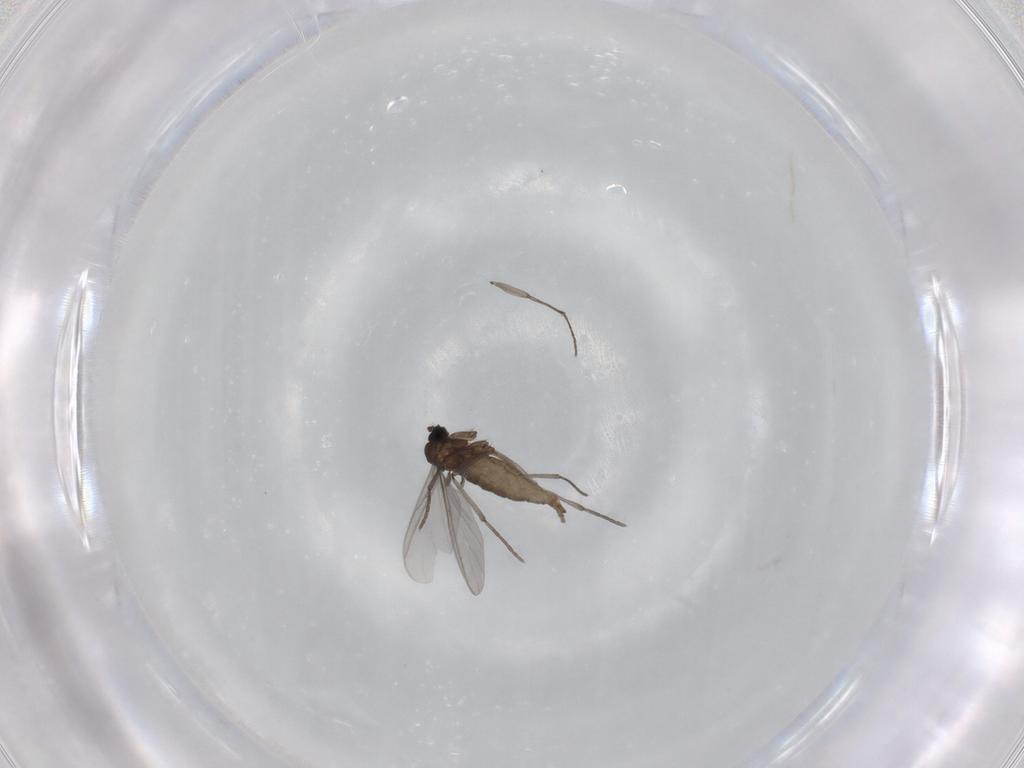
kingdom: Animalia
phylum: Arthropoda
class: Insecta
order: Diptera
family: Sciaridae
